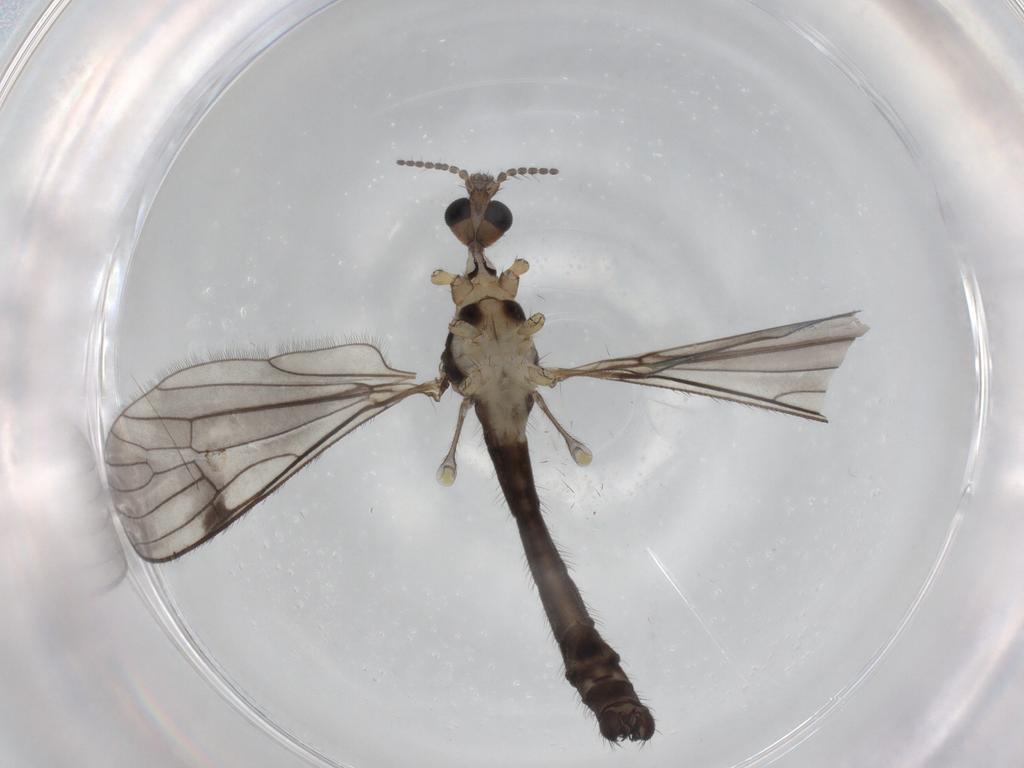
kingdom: Animalia
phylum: Arthropoda
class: Insecta
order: Diptera
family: Limoniidae
